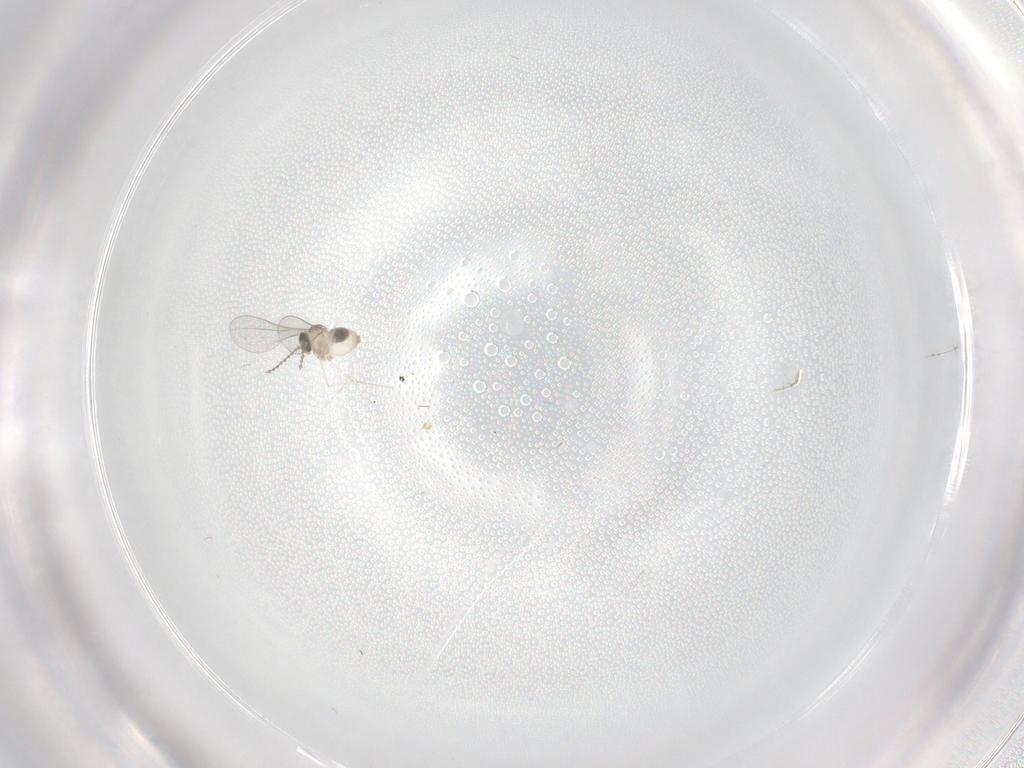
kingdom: Animalia
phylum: Arthropoda
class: Insecta
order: Diptera
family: Cecidomyiidae
